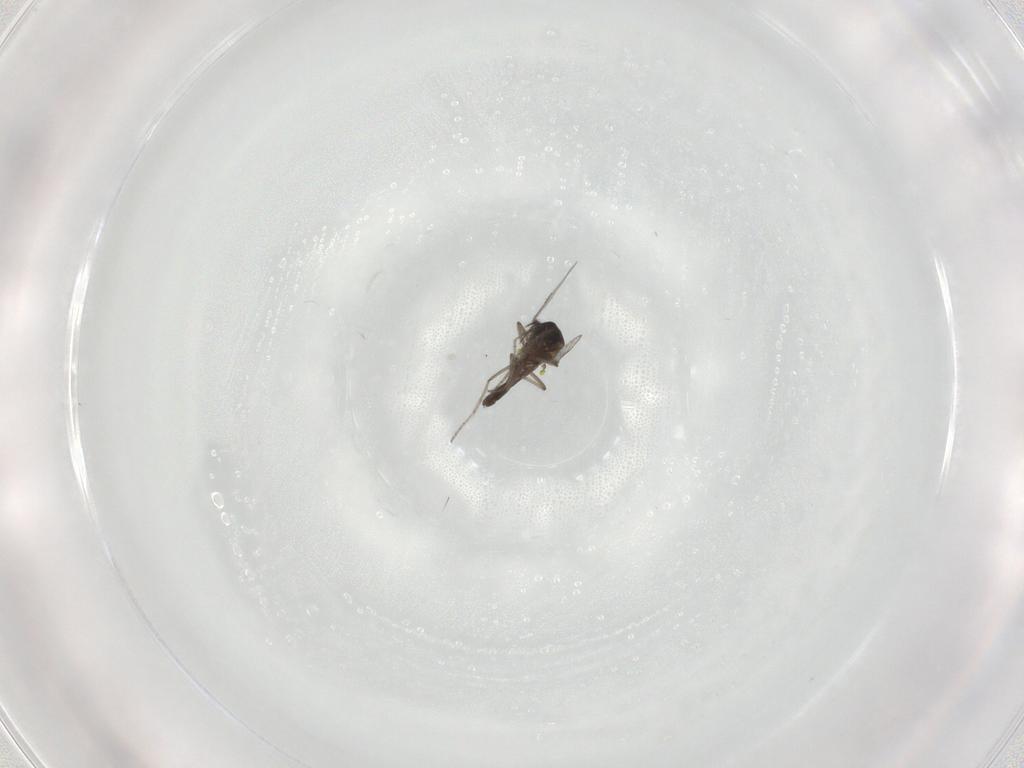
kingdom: Animalia
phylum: Arthropoda
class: Insecta
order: Diptera
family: Ceratopogonidae
